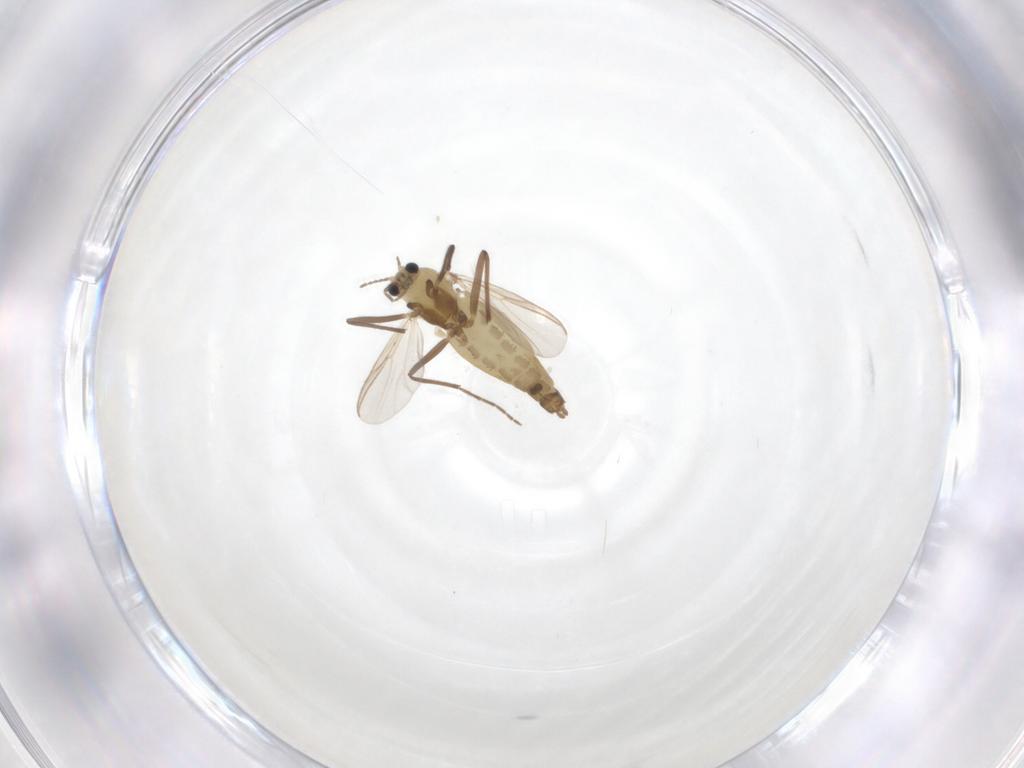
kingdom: Animalia
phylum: Arthropoda
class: Insecta
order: Diptera
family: Chironomidae
